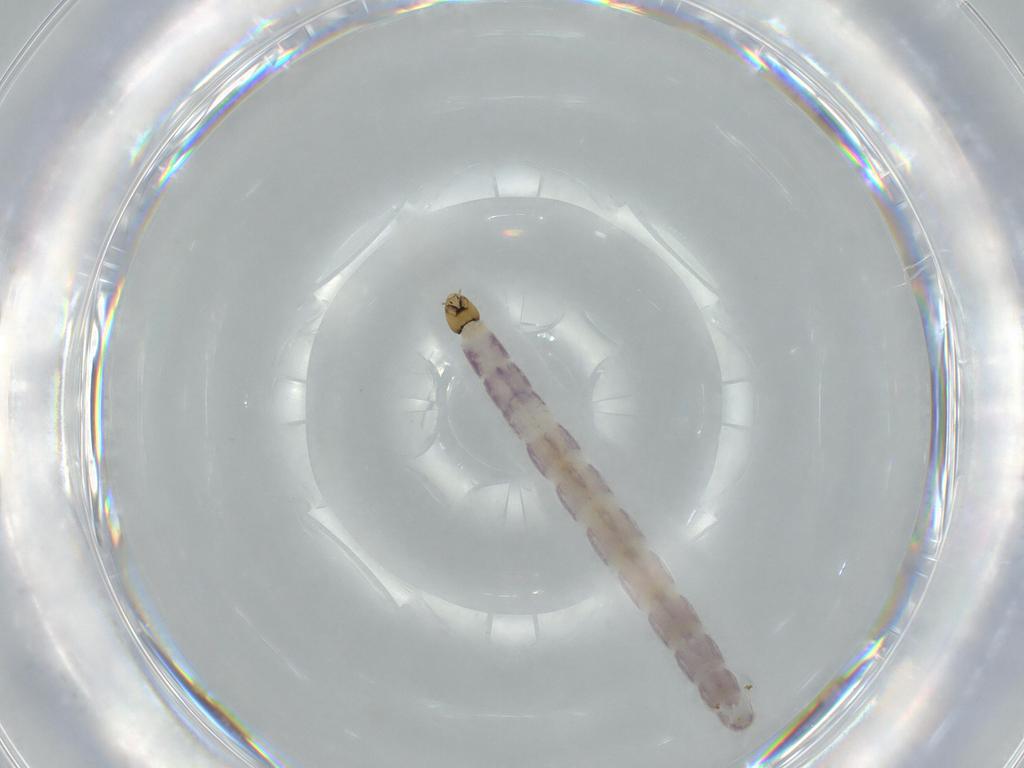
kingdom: Animalia
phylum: Arthropoda
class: Insecta
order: Diptera
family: Chironomidae
